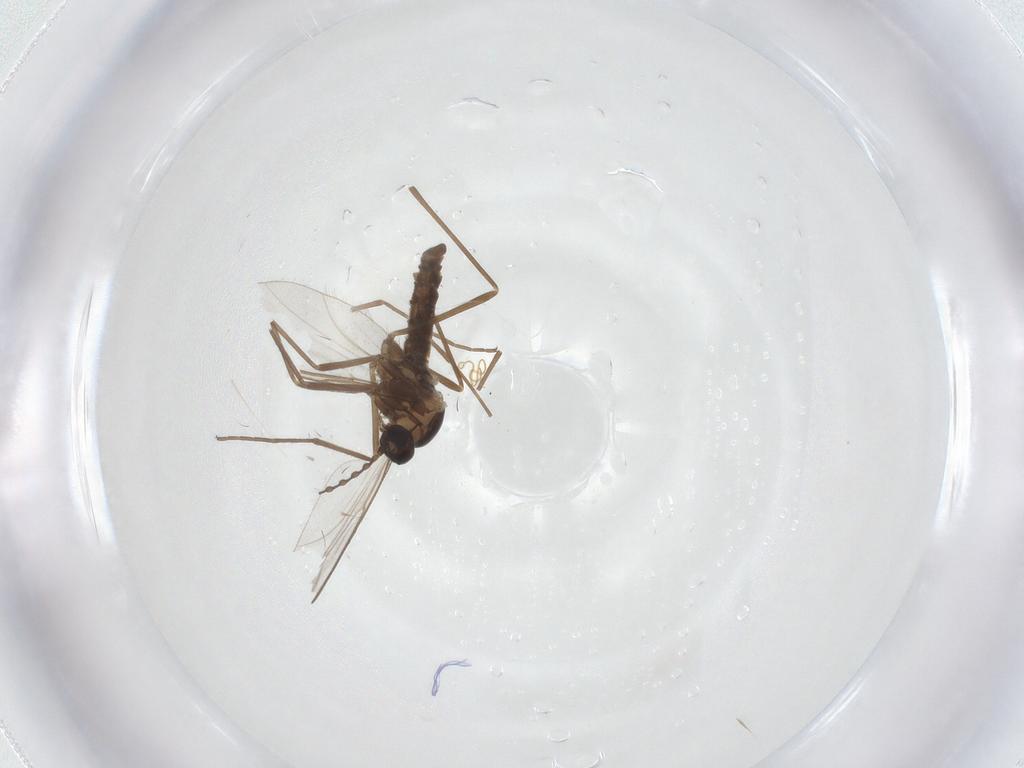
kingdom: Animalia
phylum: Arthropoda
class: Insecta
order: Diptera
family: Cecidomyiidae
